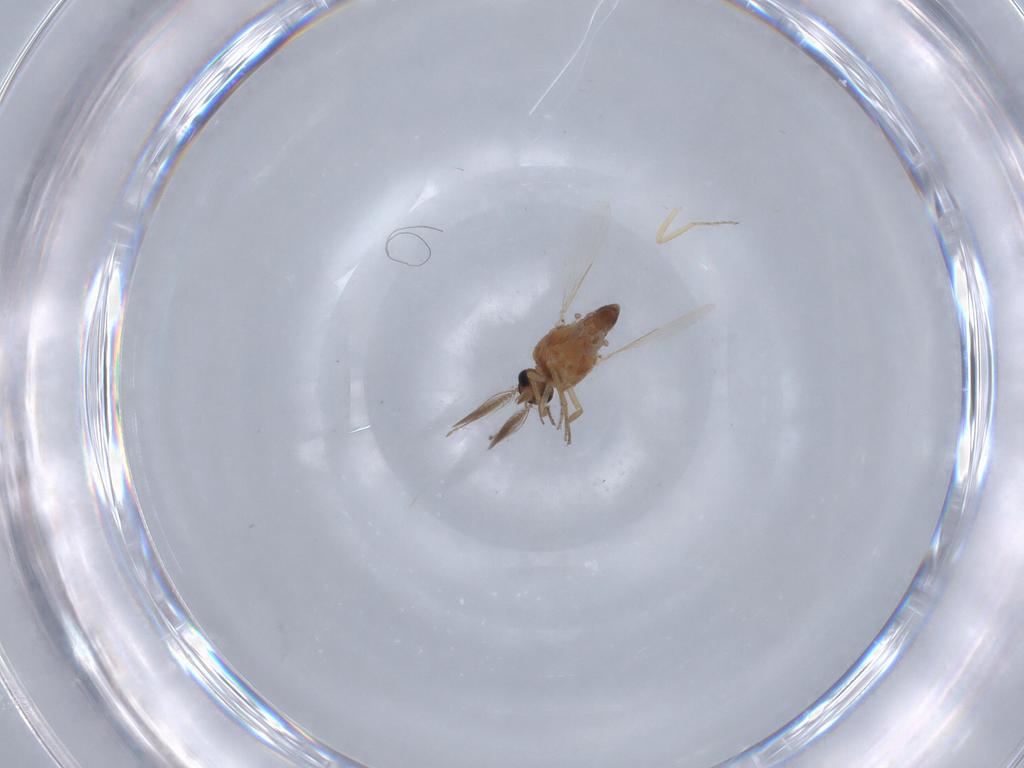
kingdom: Animalia
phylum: Arthropoda
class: Insecta
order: Diptera
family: Ceratopogonidae
